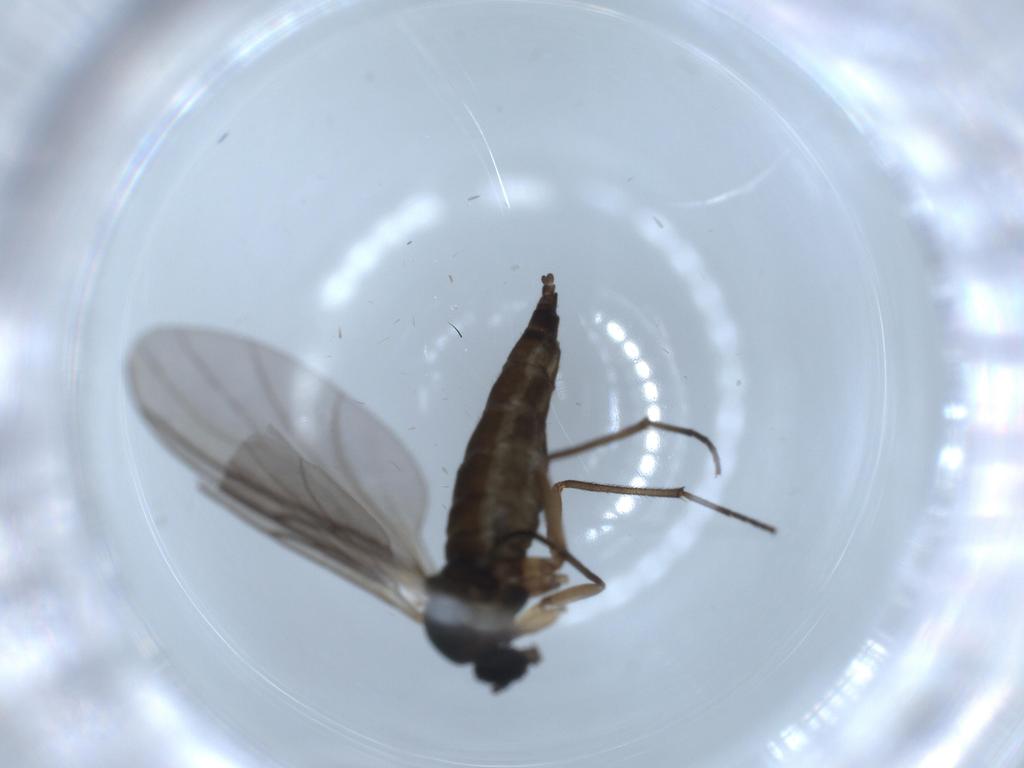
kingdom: Animalia
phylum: Arthropoda
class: Insecta
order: Diptera
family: Sciaridae
